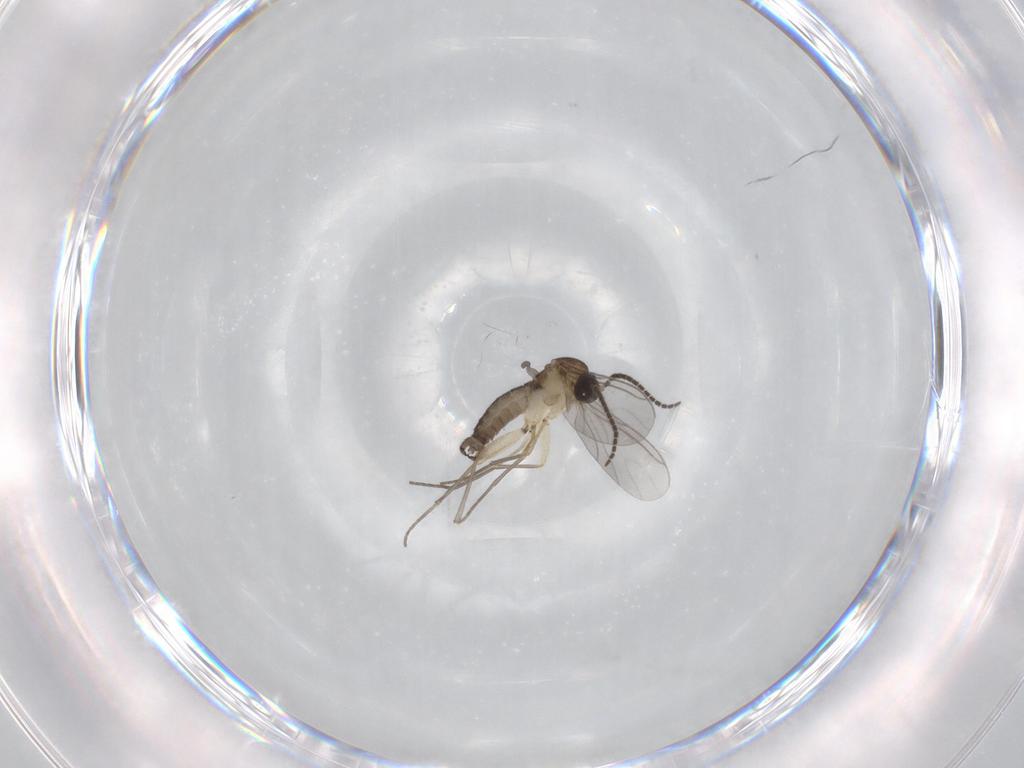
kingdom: Animalia
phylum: Arthropoda
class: Insecta
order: Diptera
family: Sciaridae
